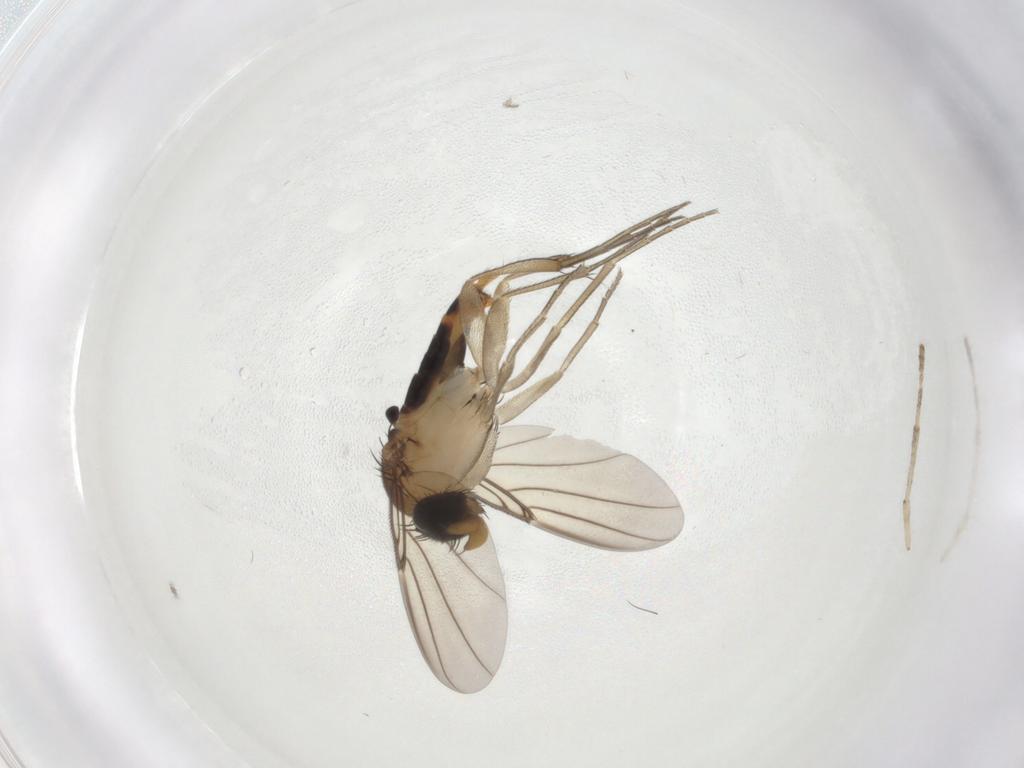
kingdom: Animalia
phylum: Arthropoda
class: Insecta
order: Diptera
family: Phoridae
